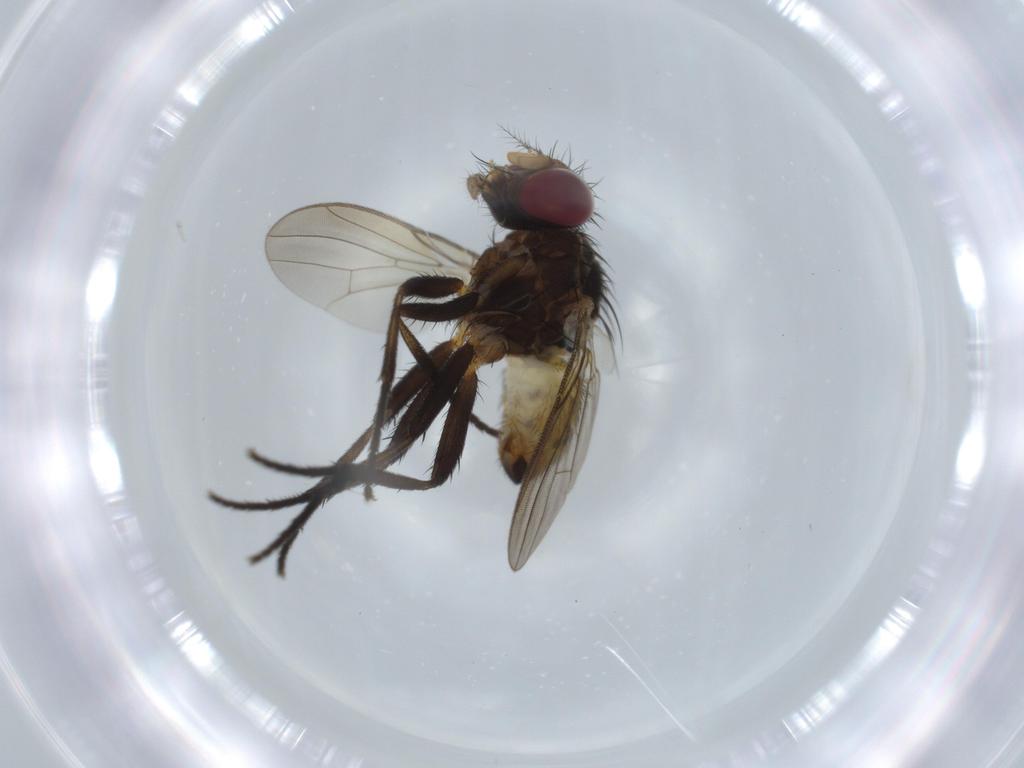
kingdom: Animalia
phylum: Arthropoda
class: Insecta
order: Diptera
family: Anthomyiidae
